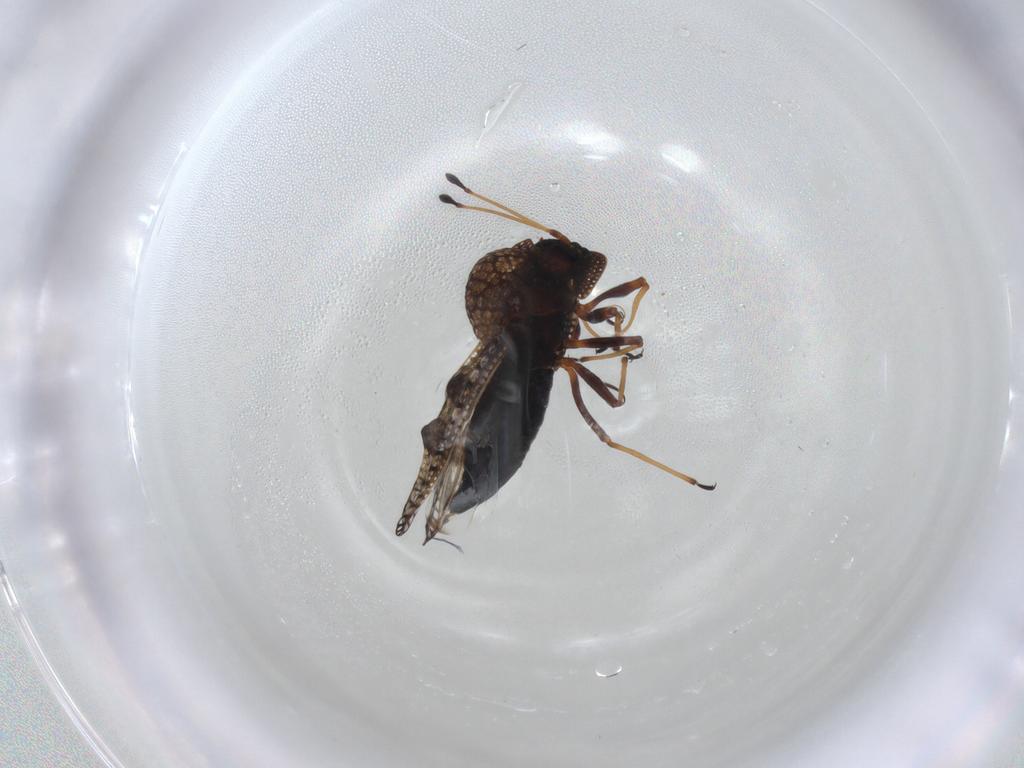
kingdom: Animalia
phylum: Arthropoda
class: Insecta
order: Hemiptera
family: Tingidae
